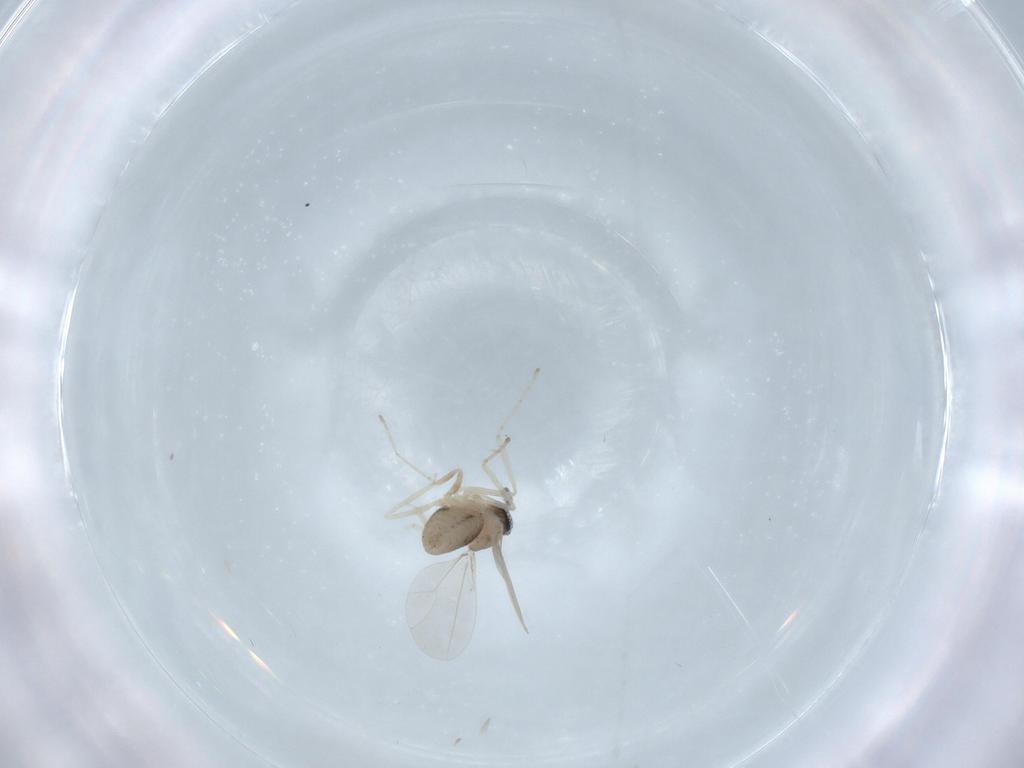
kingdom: Animalia
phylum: Arthropoda
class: Insecta
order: Diptera
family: Cecidomyiidae
